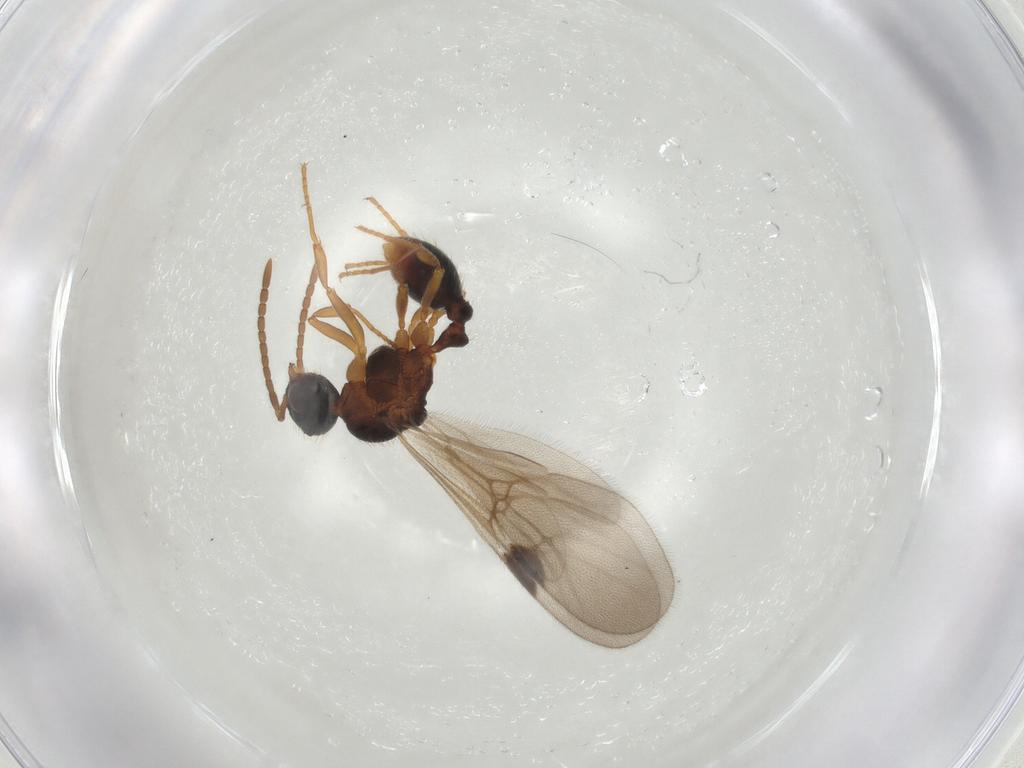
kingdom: Animalia
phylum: Arthropoda
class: Insecta
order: Hymenoptera
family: Formicidae
